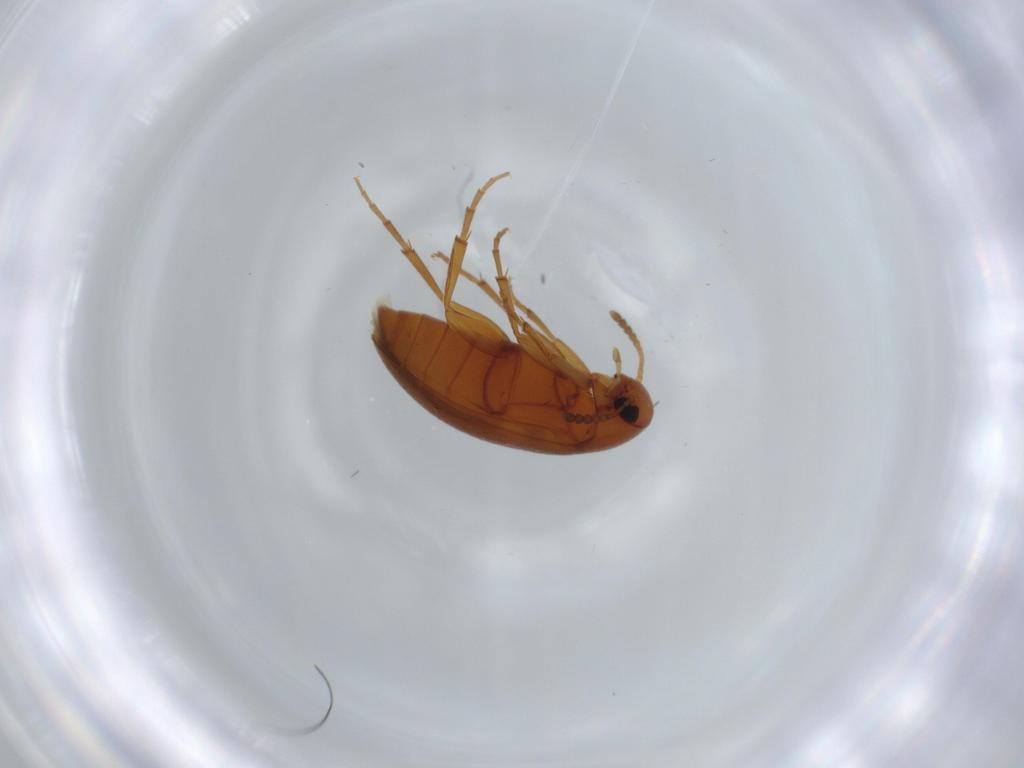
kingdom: Animalia
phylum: Arthropoda
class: Insecta
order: Coleoptera
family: Scraptiidae
